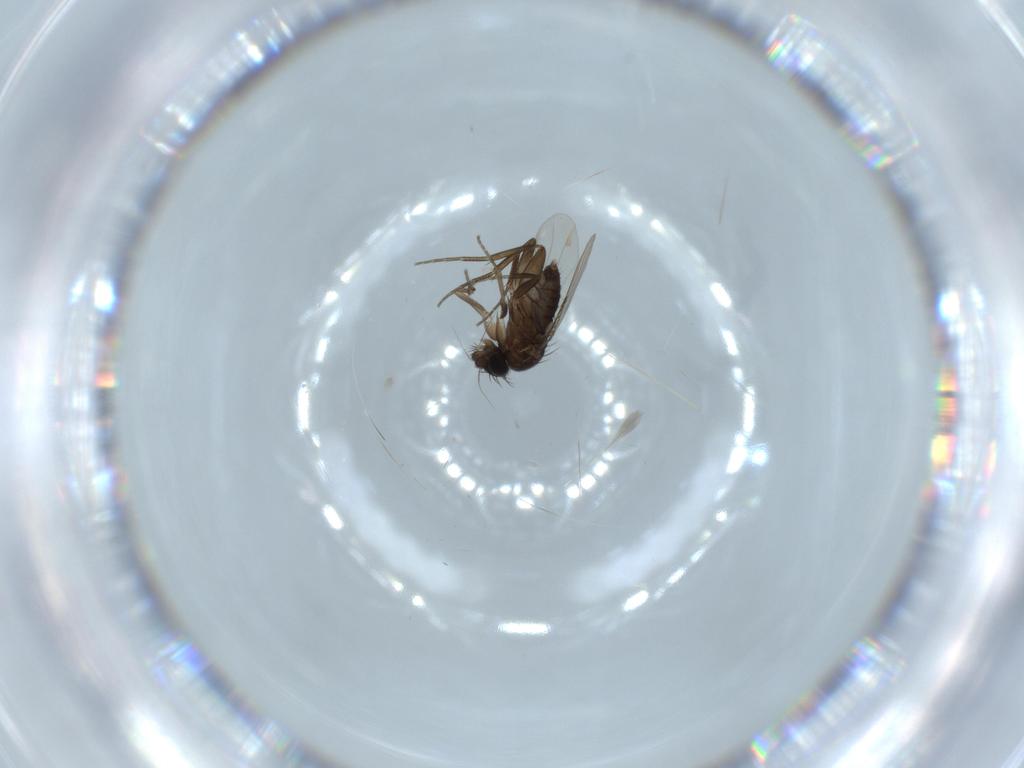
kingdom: Animalia
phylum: Arthropoda
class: Insecta
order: Diptera
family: Phoridae
